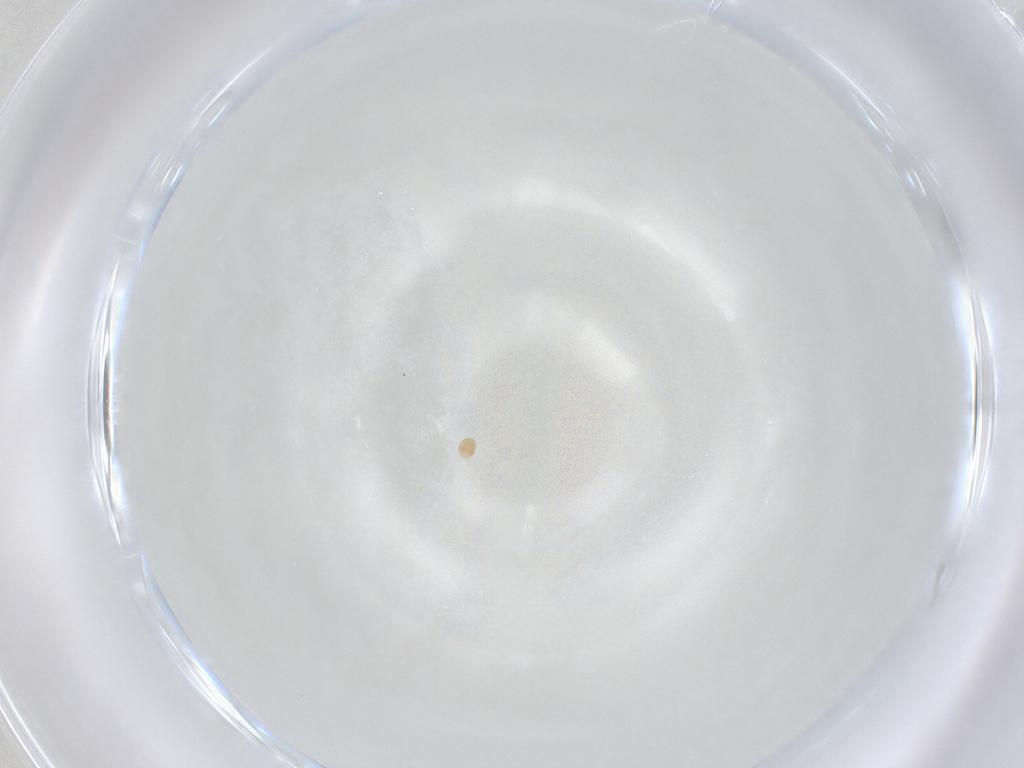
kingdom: Animalia
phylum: Arthropoda
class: Arachnida
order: Trombidiformes
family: Scutacaridae
